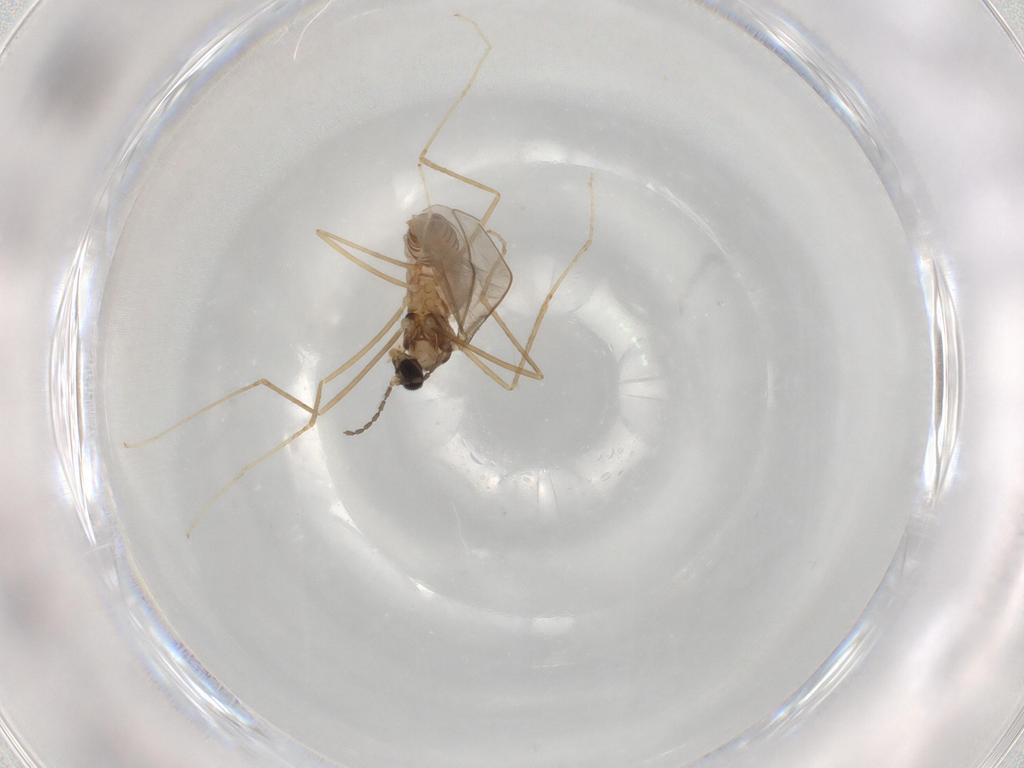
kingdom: Animalia
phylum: Arthropoda
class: Insecta
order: Diptera
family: Cecidomyiidae
